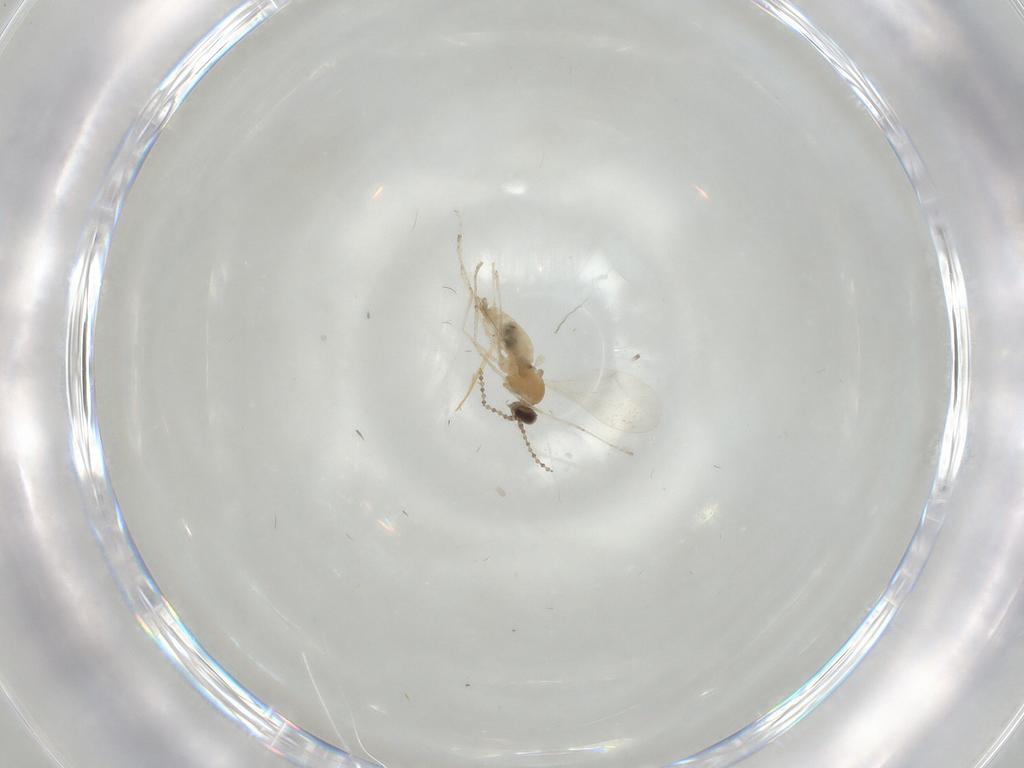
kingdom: Animalia
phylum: Arthropoda
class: Insecta
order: Diptera
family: Cecidomyiidae
